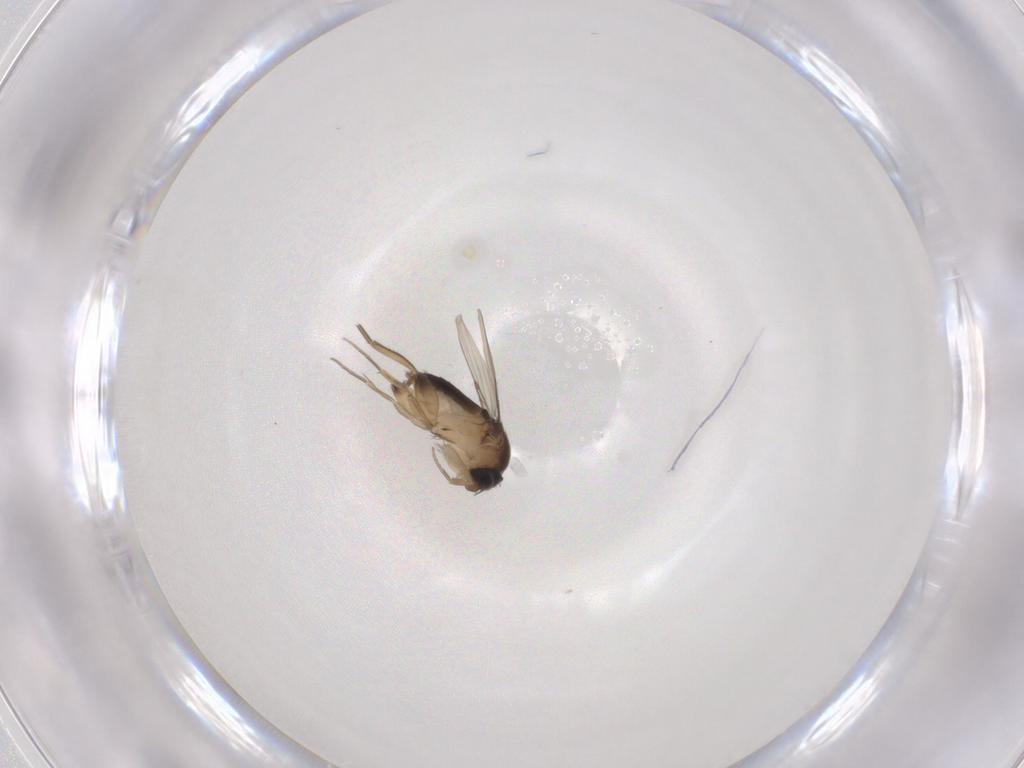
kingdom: Animalia
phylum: Arthropoda
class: Insecta
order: Diptera
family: Phoridae
